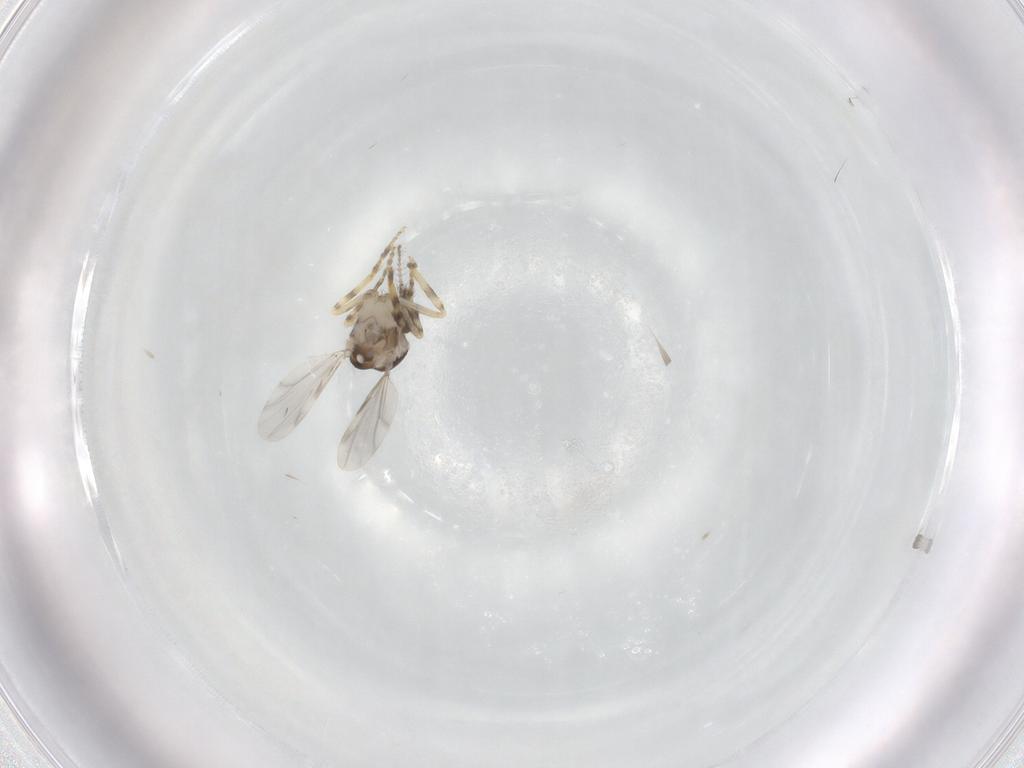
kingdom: Animalia
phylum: Arthropoda
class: Insecta
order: Diptera
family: Ceratopogonidae
